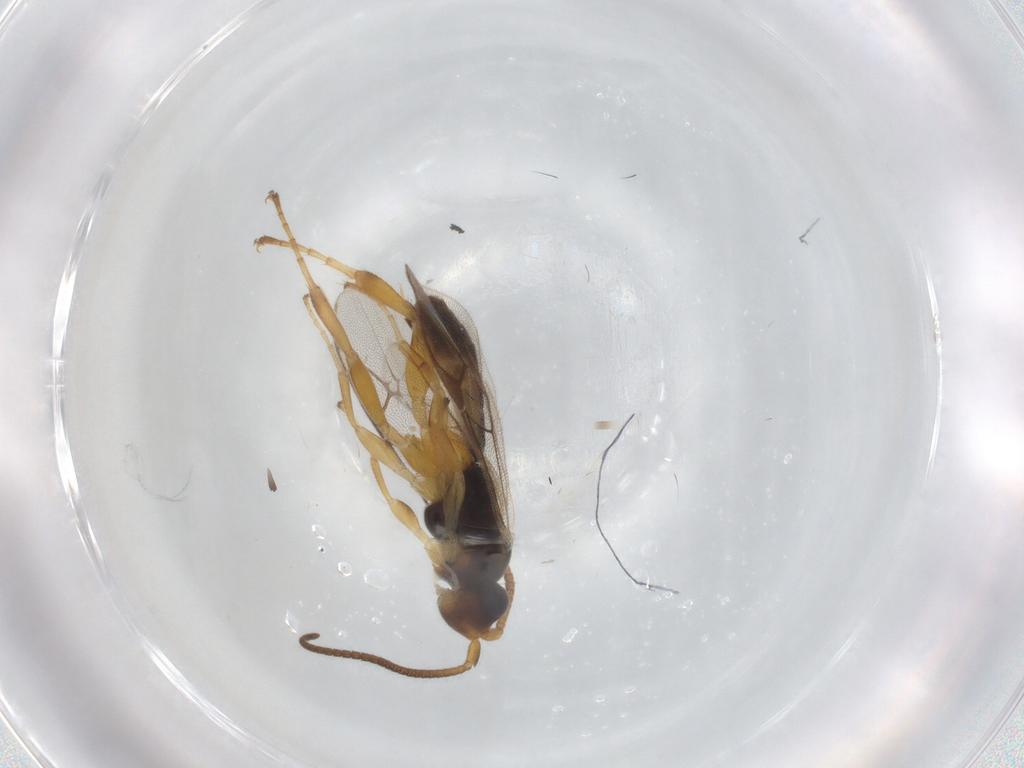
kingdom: Animalia
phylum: Arthropoda
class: Insecta
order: Hymenoptera
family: Ichneumonidae
